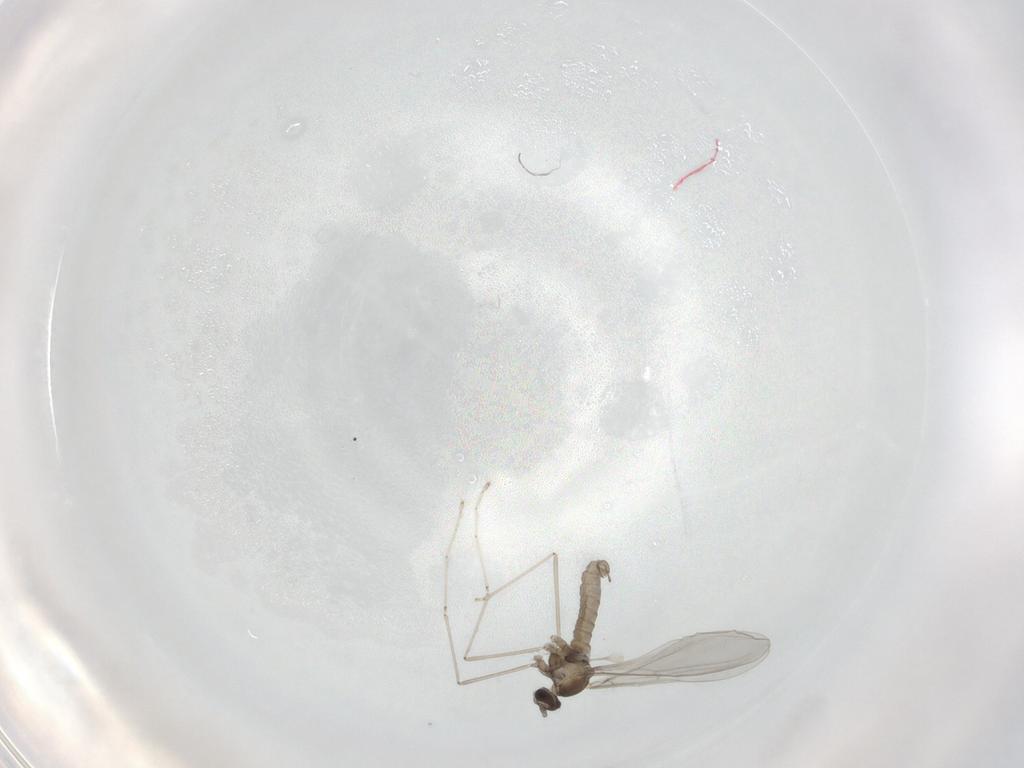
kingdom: Animalia
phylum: Arthropoda
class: Insecta
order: Diptera
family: Cecidomyiidae
